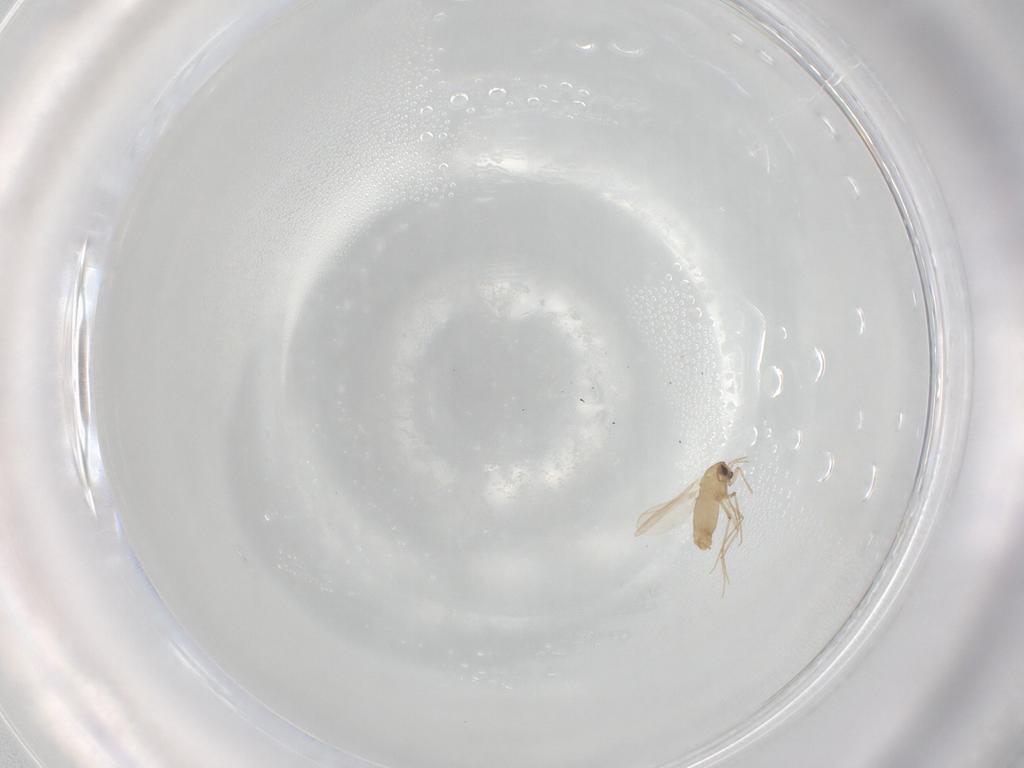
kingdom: Animalia
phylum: Arthropoda
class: Insecta
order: Diptera
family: Chironomidae
